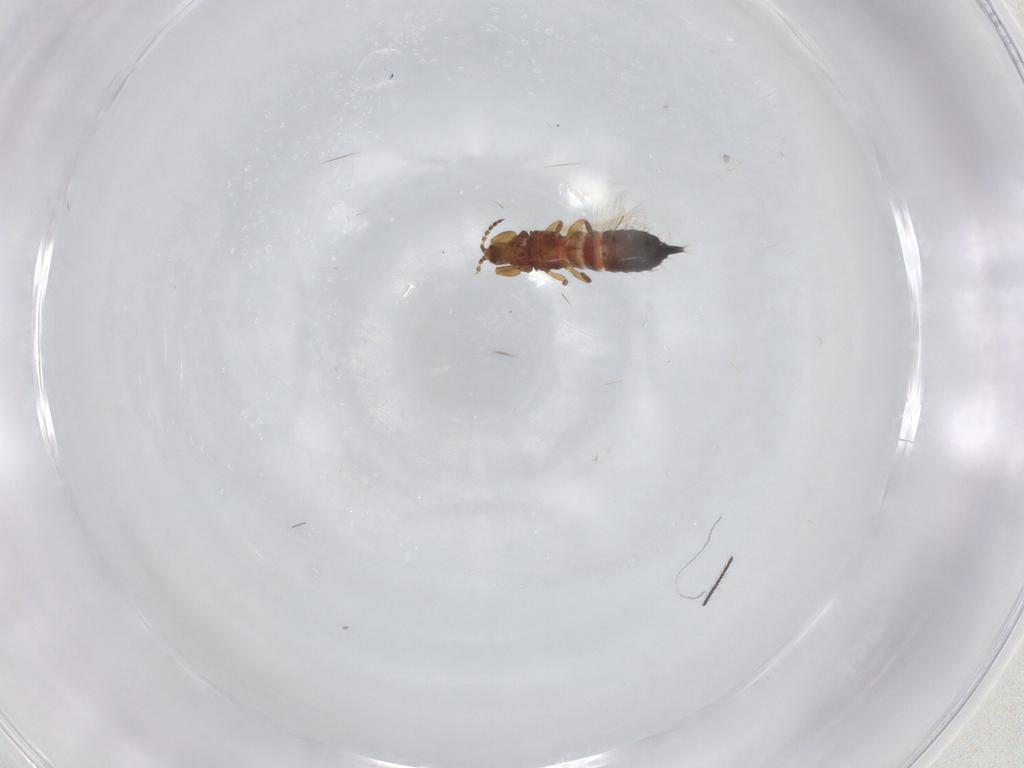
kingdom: Animalia
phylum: Arthropoda
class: Insecta
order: Thysanoptera
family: Phlaeothripidae
